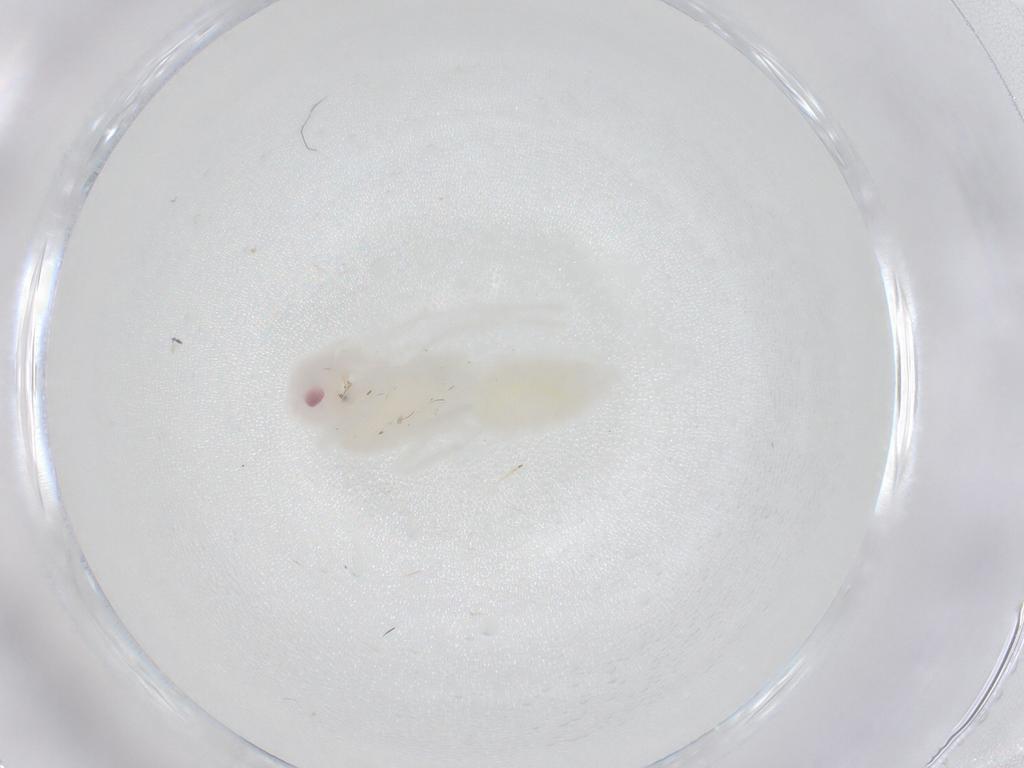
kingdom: Animalia
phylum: Arthropoda
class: Insecta
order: Hymenoptera
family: Formicidae
